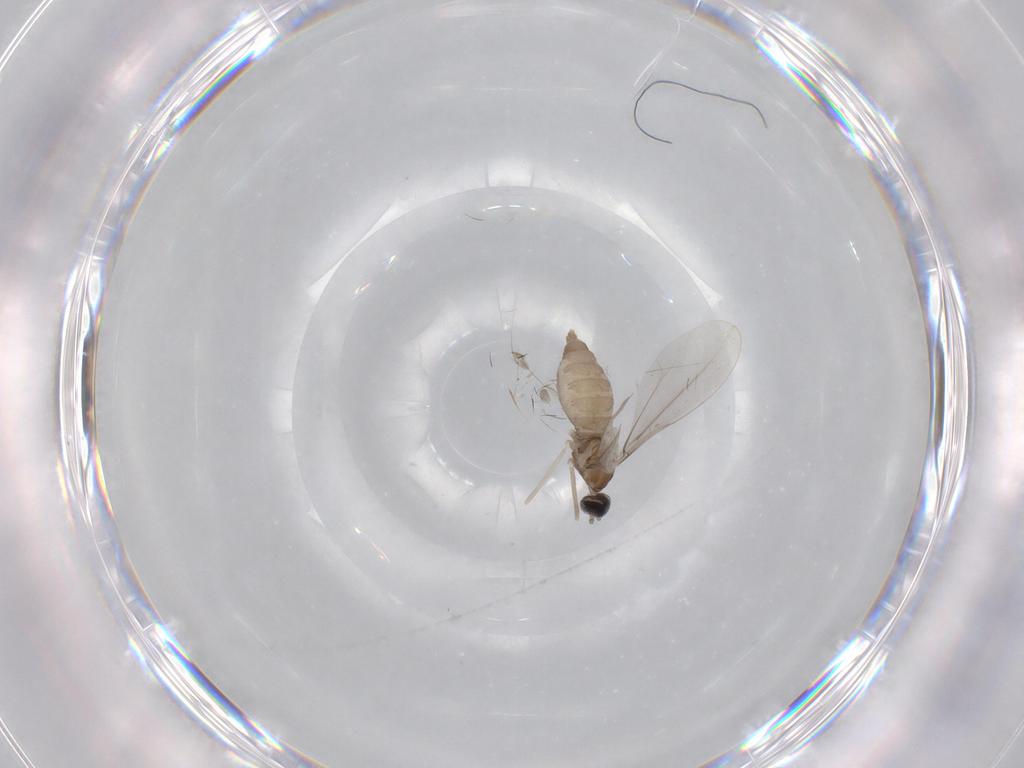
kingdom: Animalia
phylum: Arthropoda
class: Insecta
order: Diptera
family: Cecidomyiidae
